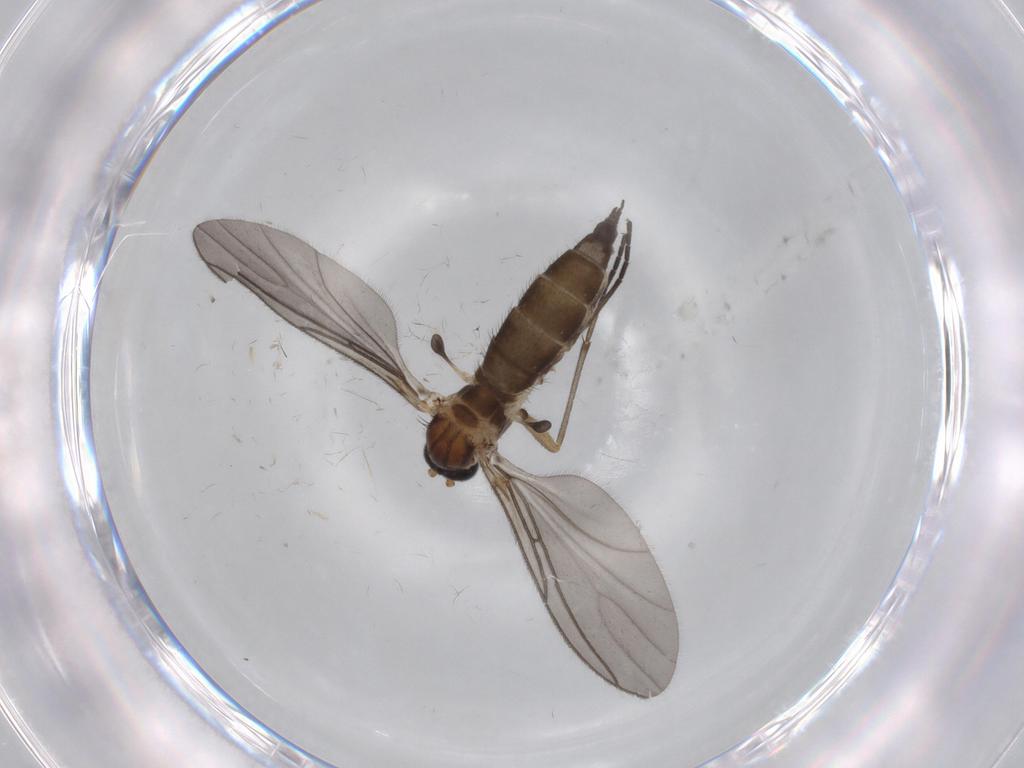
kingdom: Animalia
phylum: Arthropoda
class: Insecta
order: Diptera
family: Sciaridae
